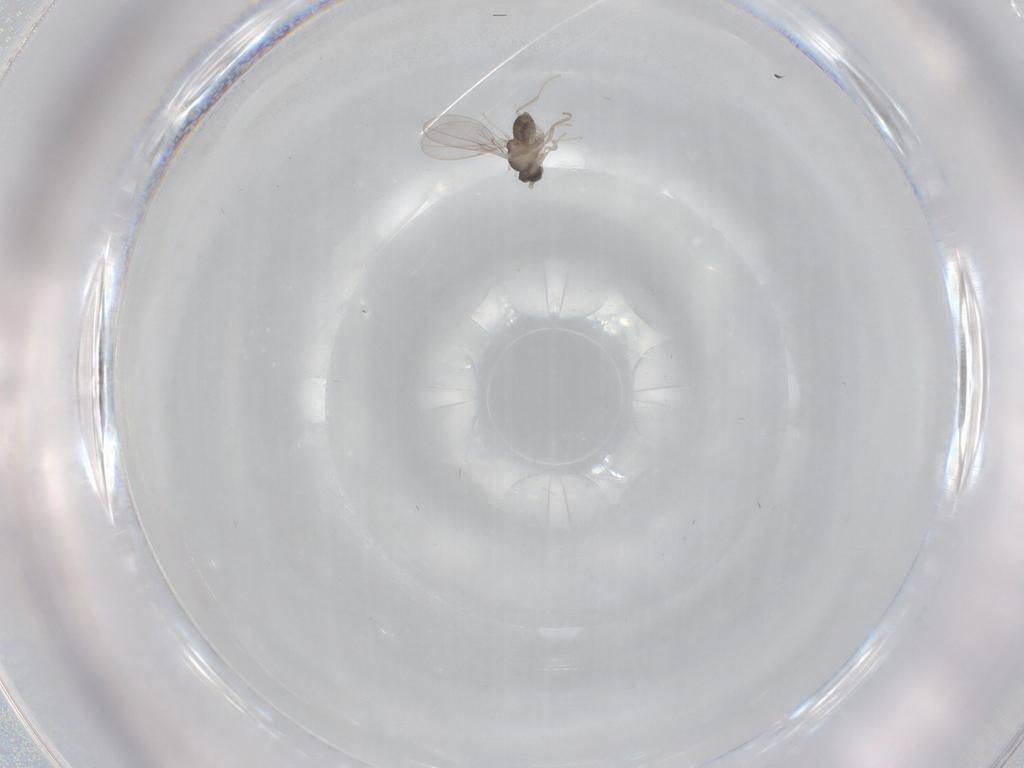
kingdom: Animalia
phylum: Arthropoda
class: Insecta
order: Diptera
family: Cecidomyiidae
